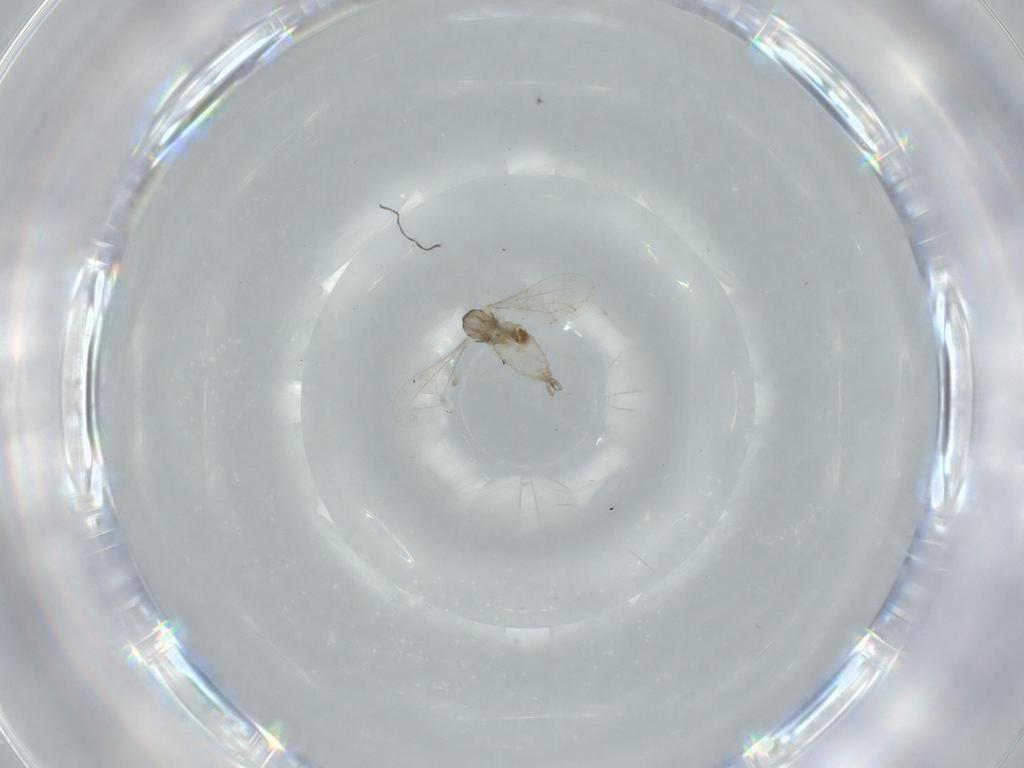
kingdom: Animalia
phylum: Arthropoda
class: Insecta
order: Diptera
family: Cecidomyiidae
